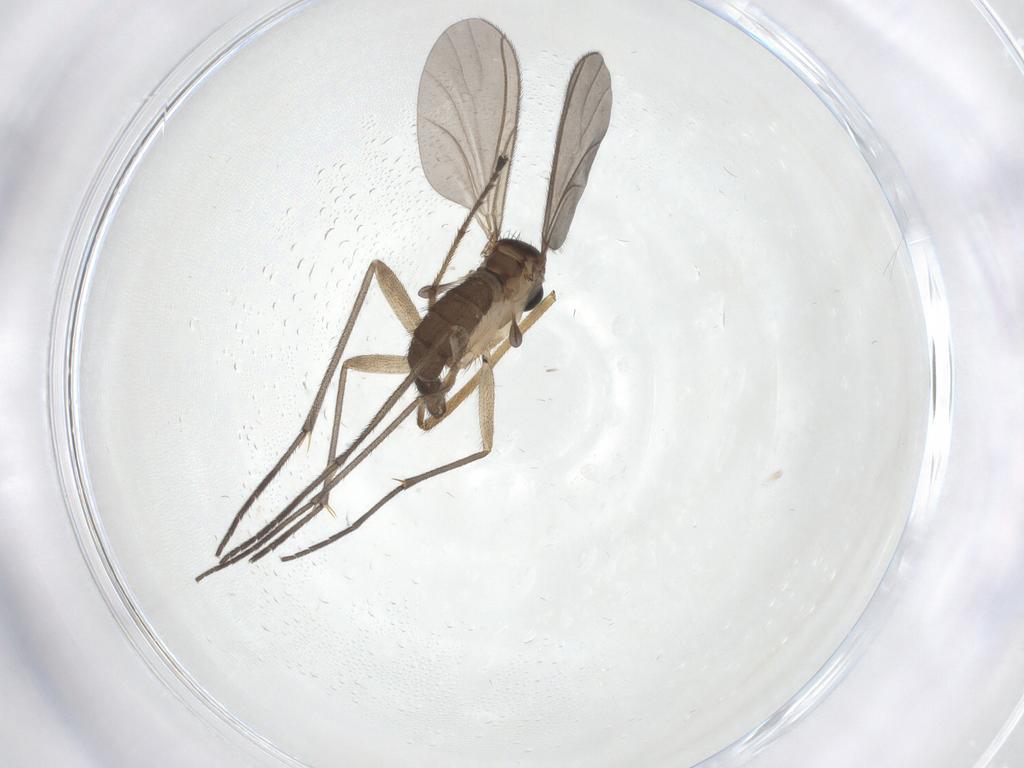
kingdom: Animalia
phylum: Arthropoda
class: Insecta
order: Diptera
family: Sciaridae
